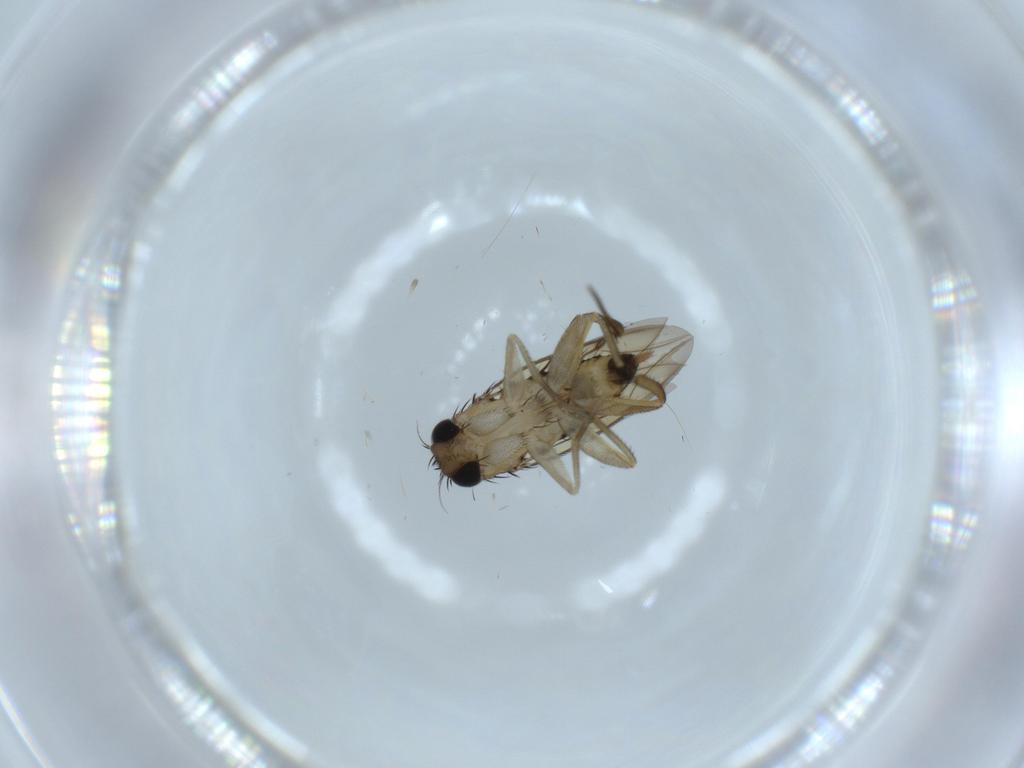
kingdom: Animalia
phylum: Arthropoda
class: Insecta
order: Diptera
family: Phoridae
